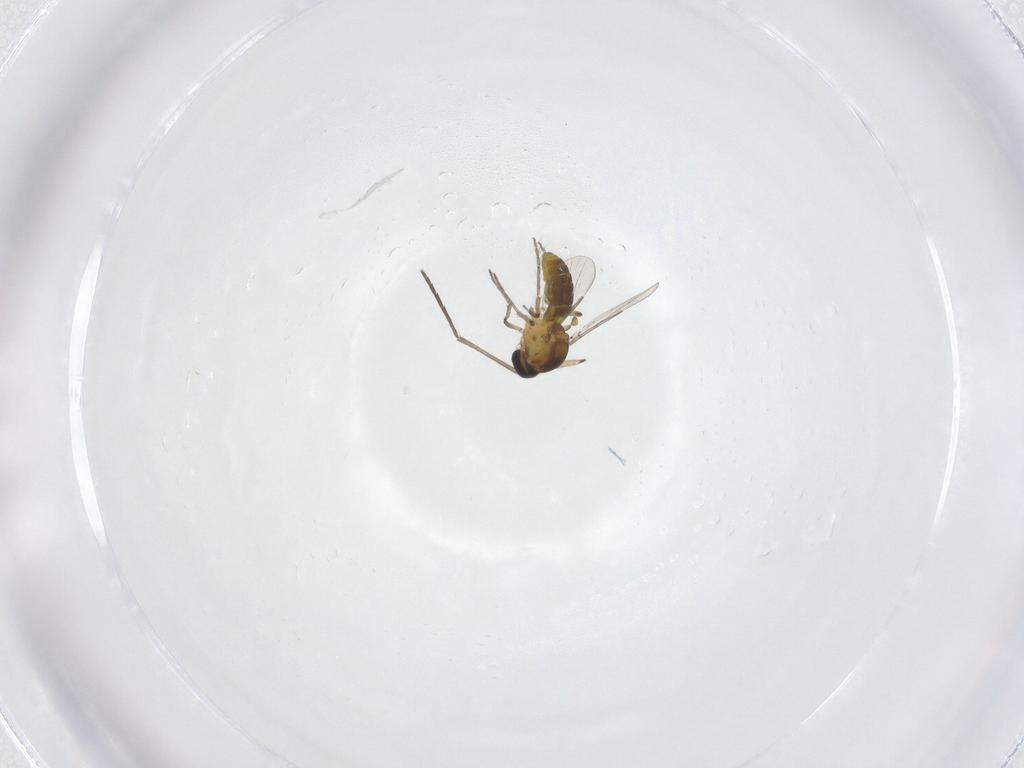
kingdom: Animalia
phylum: Arthropoda
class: Insecta
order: Diptera
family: Ceratopogonidae
